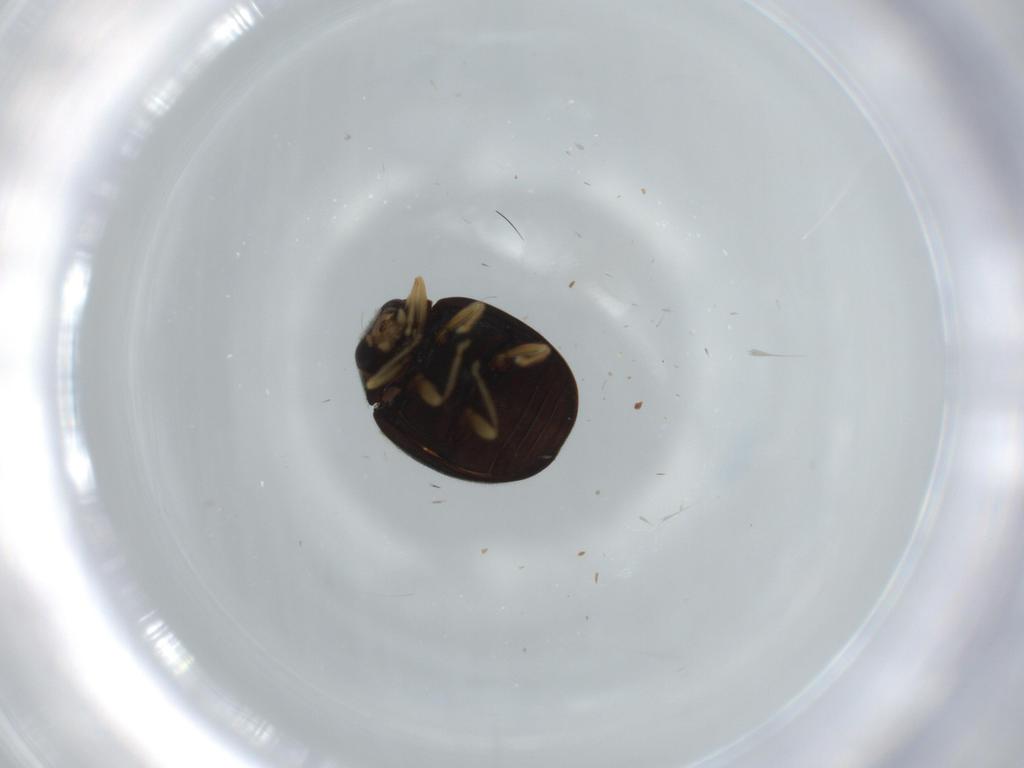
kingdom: Animalia
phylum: Arthropoda
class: Insecta
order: Coleoptera
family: Coccinellidae
